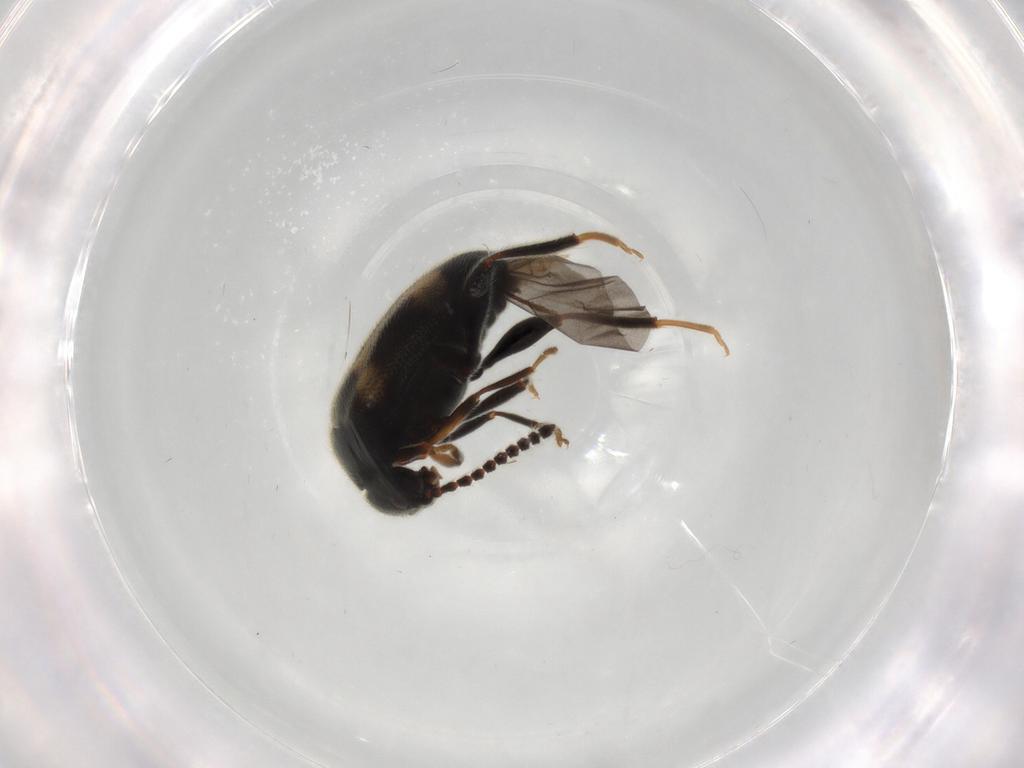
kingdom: Animalia
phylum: Arthropoda
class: Insecta
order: Coleoptera
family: Aderidae
